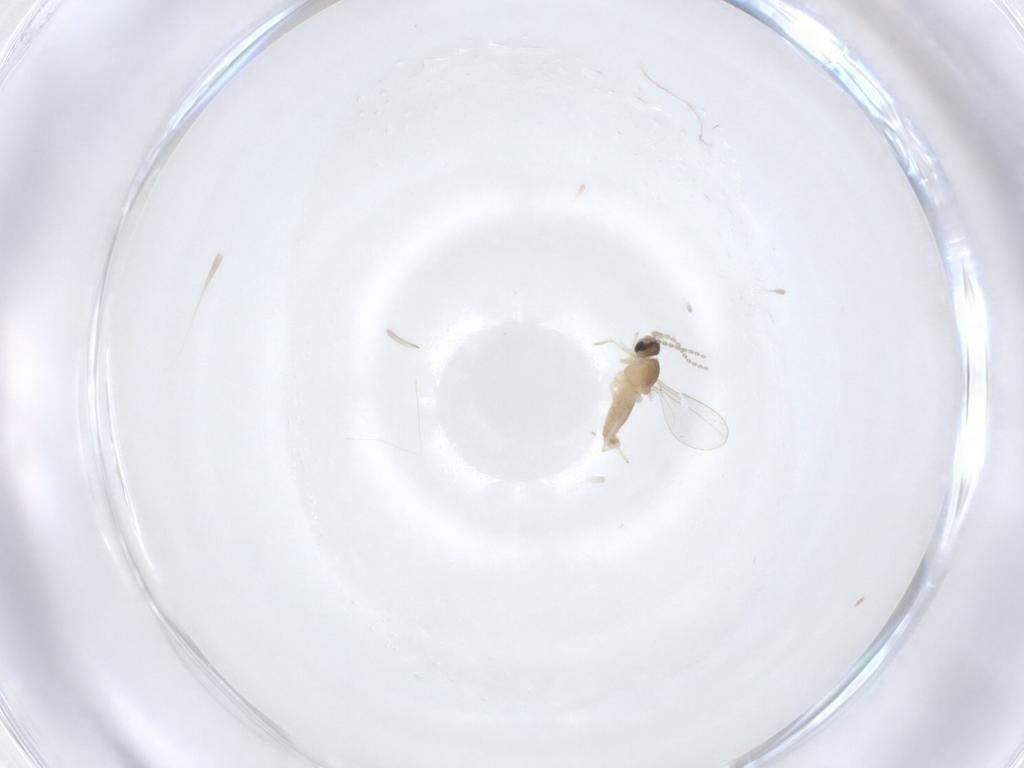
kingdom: Animalia
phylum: Arthropoda
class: Insecta
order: Diptera
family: Cecidomyiidae
